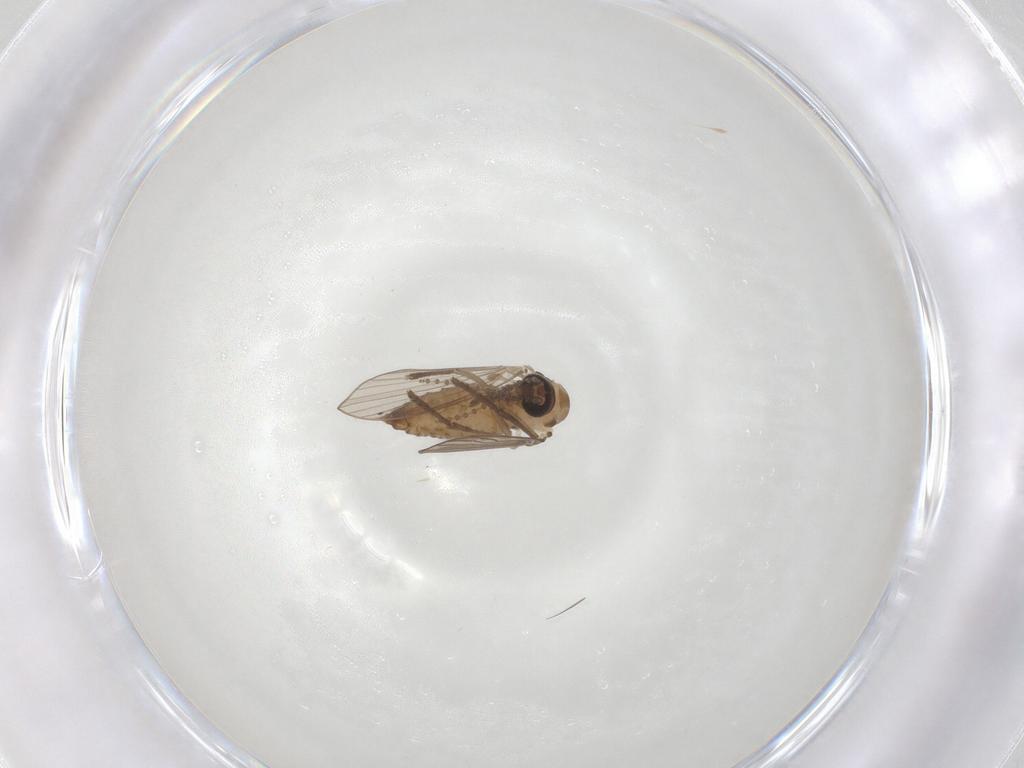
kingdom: Animalia
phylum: Arthropoda
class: Insecta
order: Diptera
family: Psychodidae
